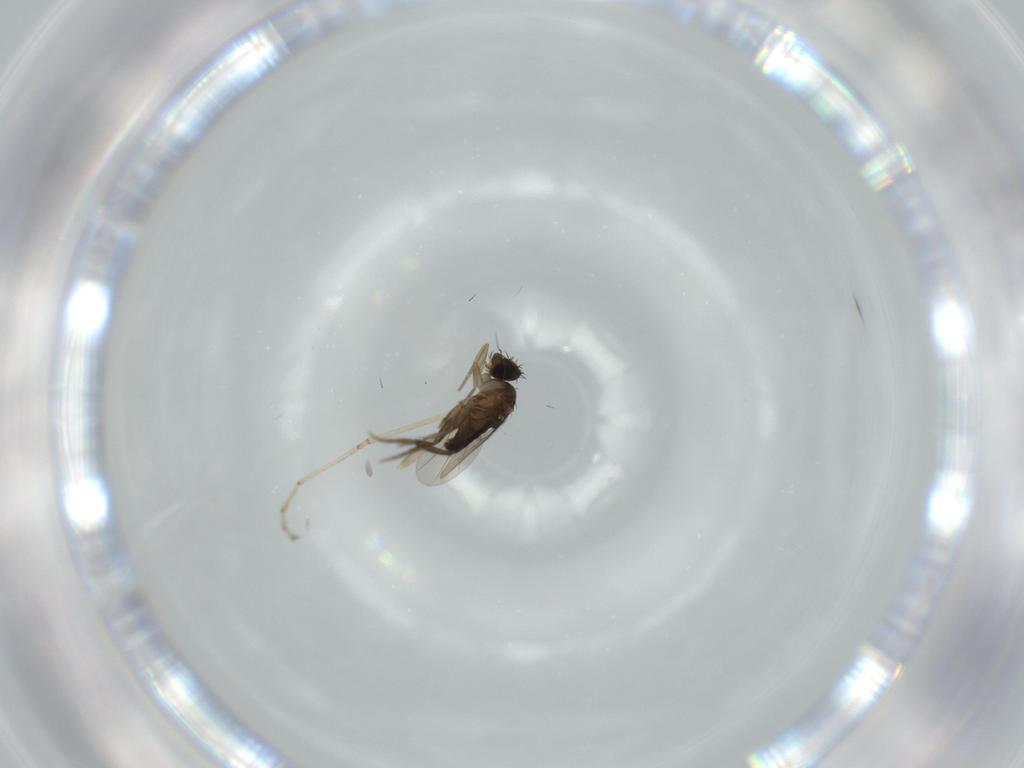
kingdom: Animalia
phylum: Arthropoda
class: Insecta
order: Diptera
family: Phoridae
